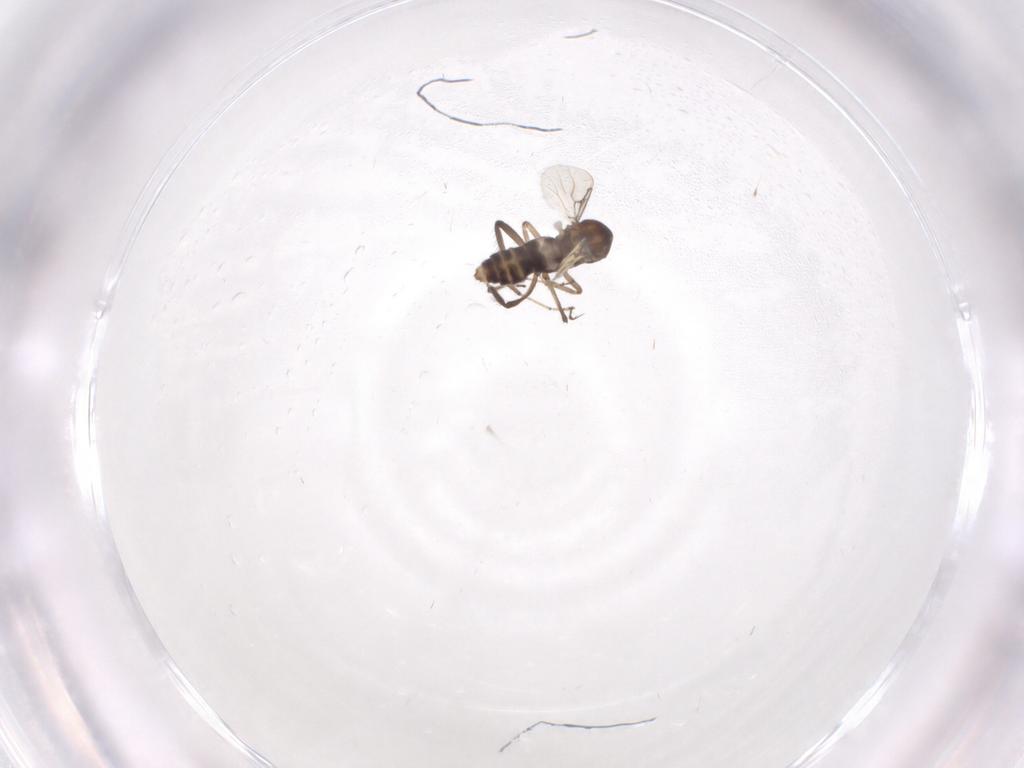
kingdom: Animalia
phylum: Arthropoda
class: Insecta
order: Diptera
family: Ceratopogonidae
